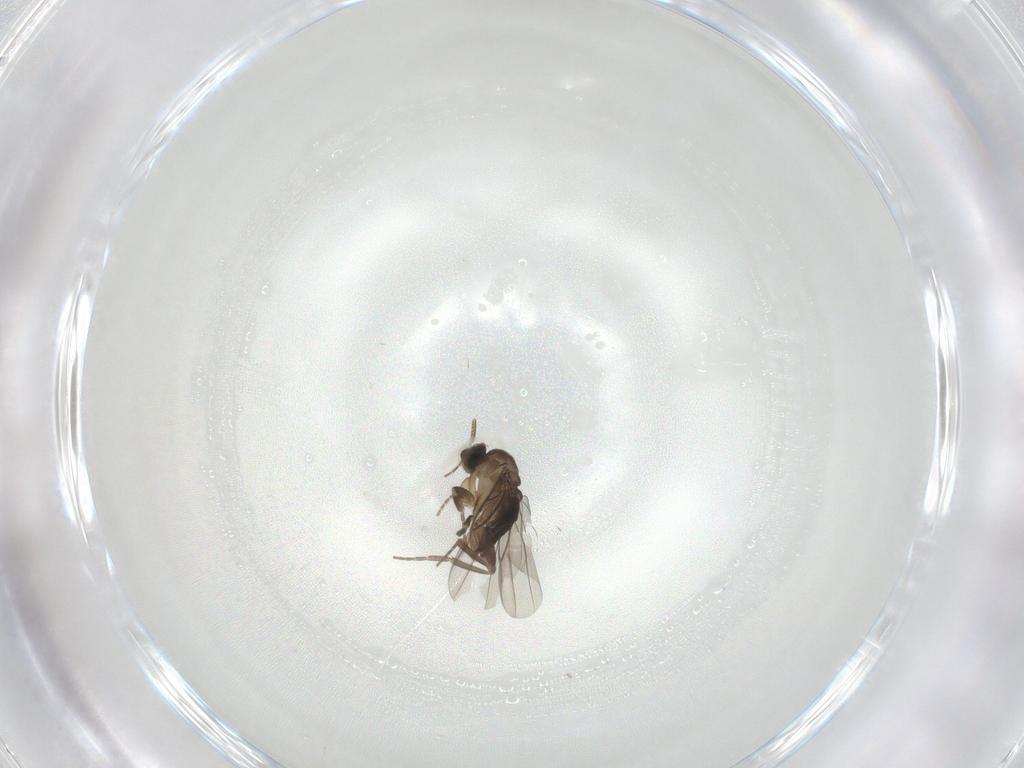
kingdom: Animalia
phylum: Arthropoda
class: Insecta
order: Diptera
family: Cecidomyiidae
